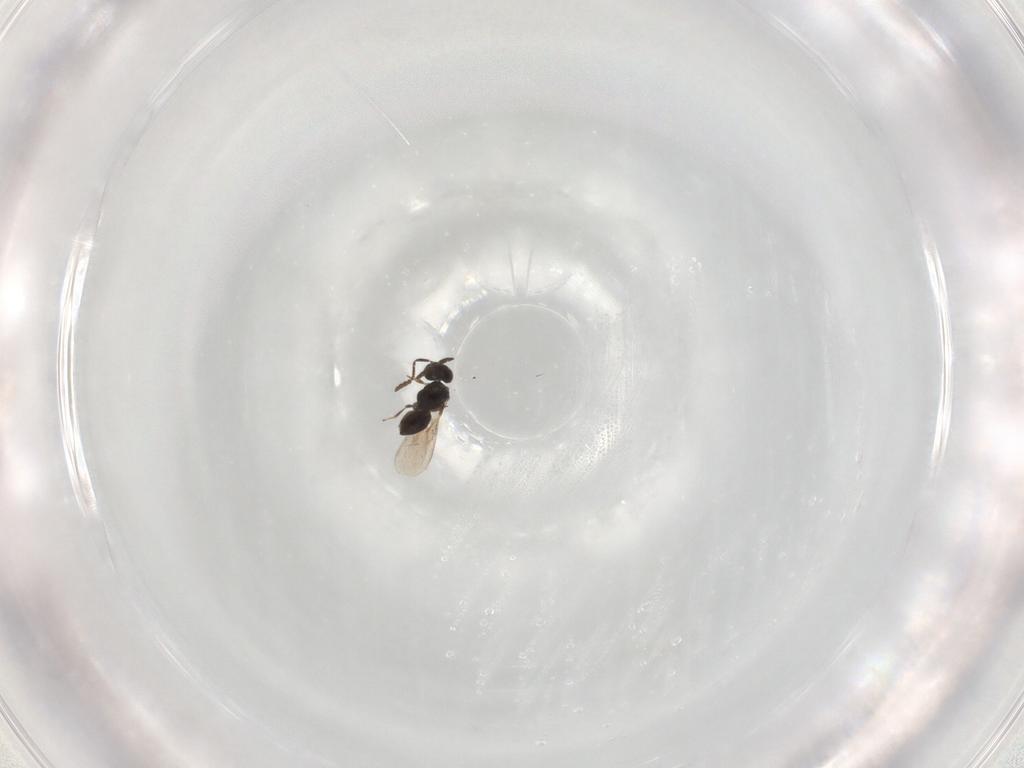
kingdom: Animalia
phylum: Arthropoda
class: Insecta
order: Hymenoptera
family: Scelionidae
